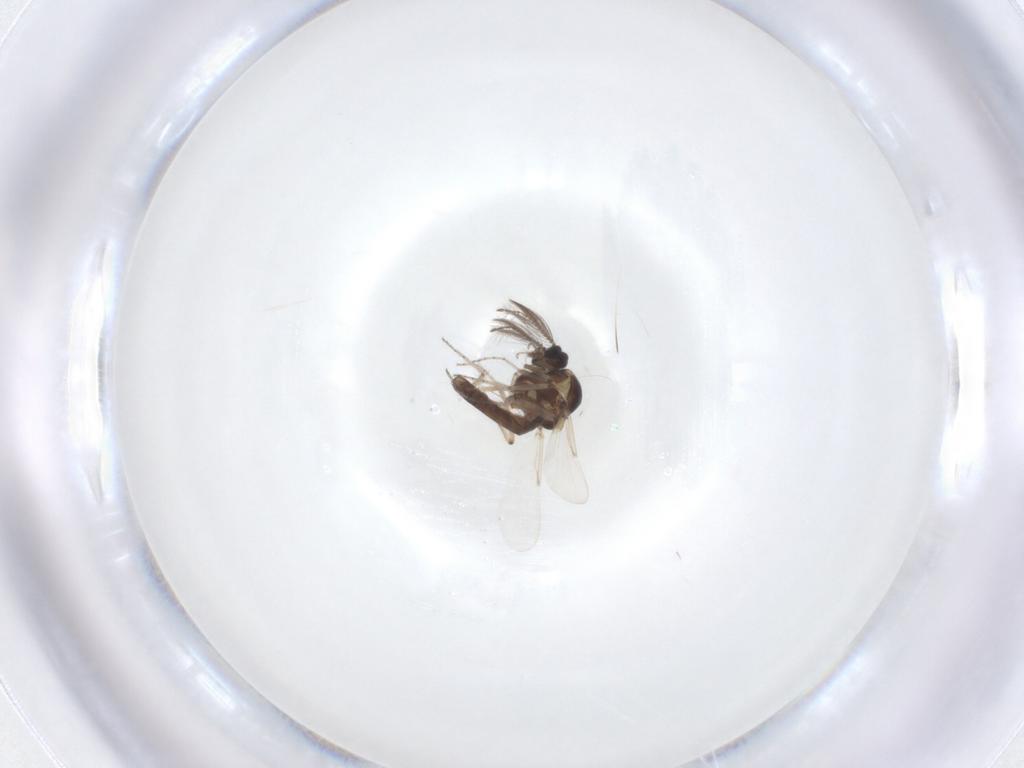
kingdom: Animalia
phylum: Arthropoda
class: Insecta
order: Diptera
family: Ceratopogonidae
